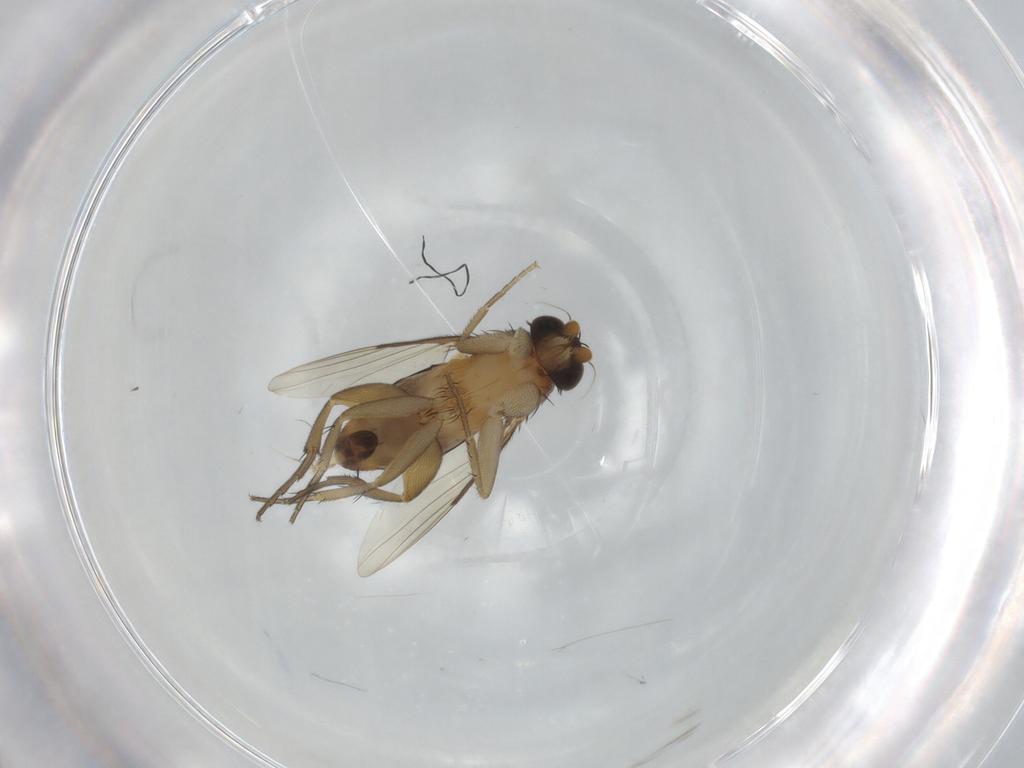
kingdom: Animalia
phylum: Arthropoda
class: Insecta
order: Diptera
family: Phoridae
